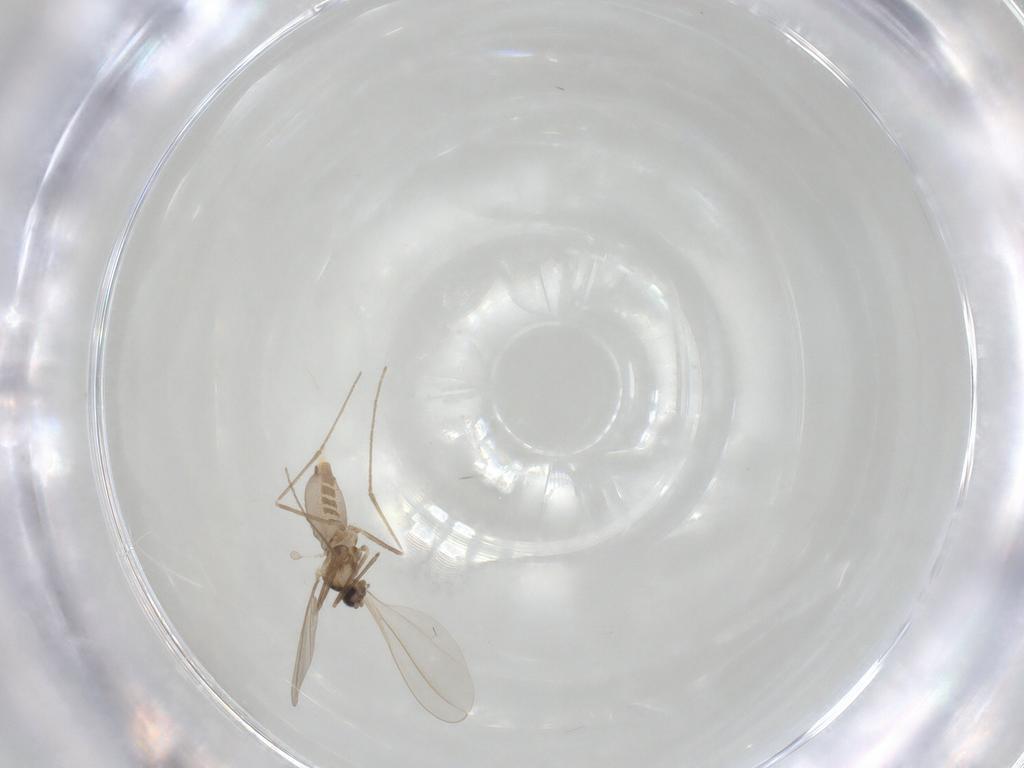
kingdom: Animalia
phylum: Arthropoda
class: Insecta
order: Diptera
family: Cecidomyiidae
